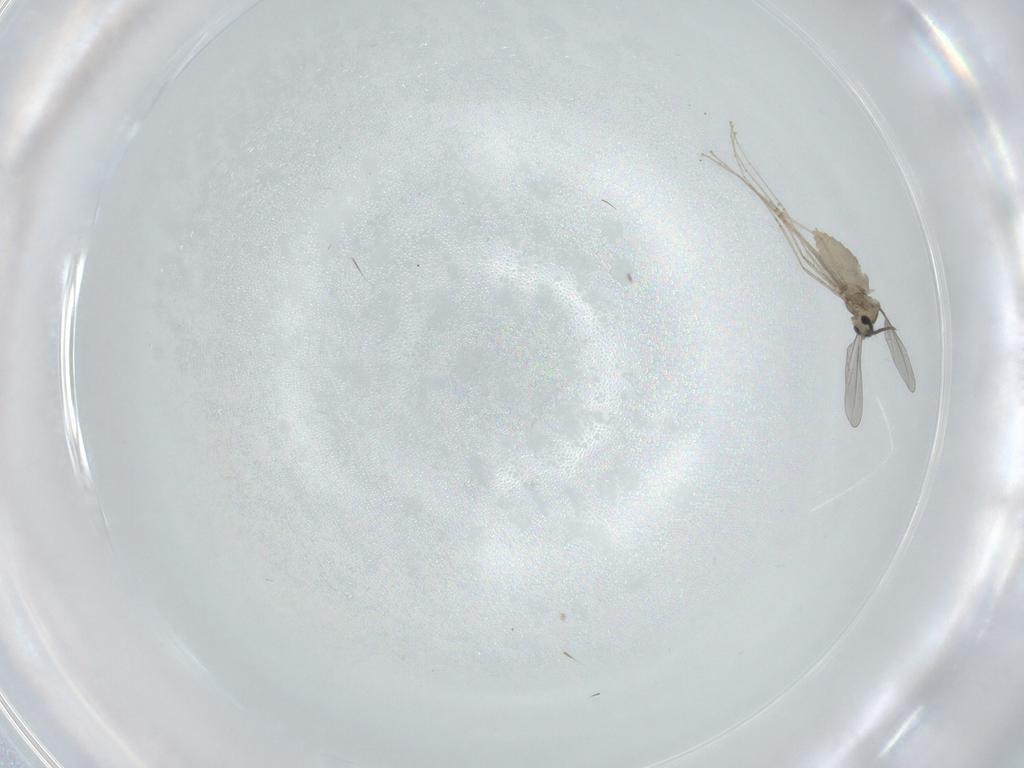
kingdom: Animalia
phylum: Arthropoda
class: Insecta
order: Diptera
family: Cecidomyiidae
